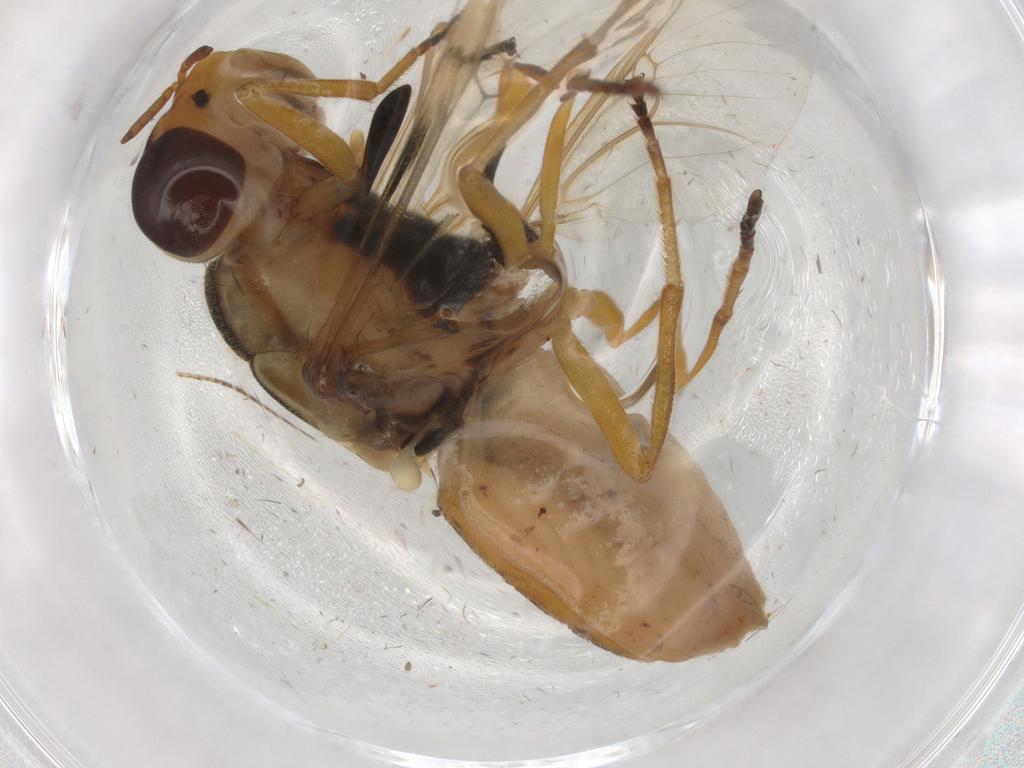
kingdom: Animalia
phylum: Arthropoda
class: Insecta
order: Diptera
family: Stratiomyidae
